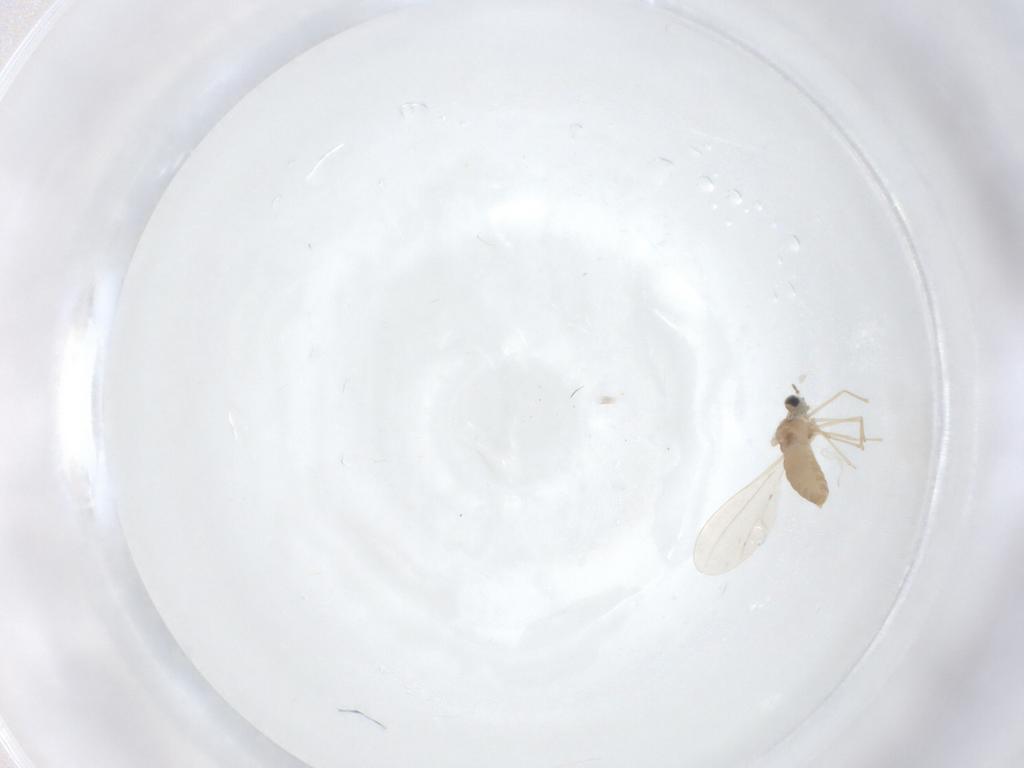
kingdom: Animalia
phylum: Arthropoda
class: Insecta
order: Diptera
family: Cecidomyiidae
